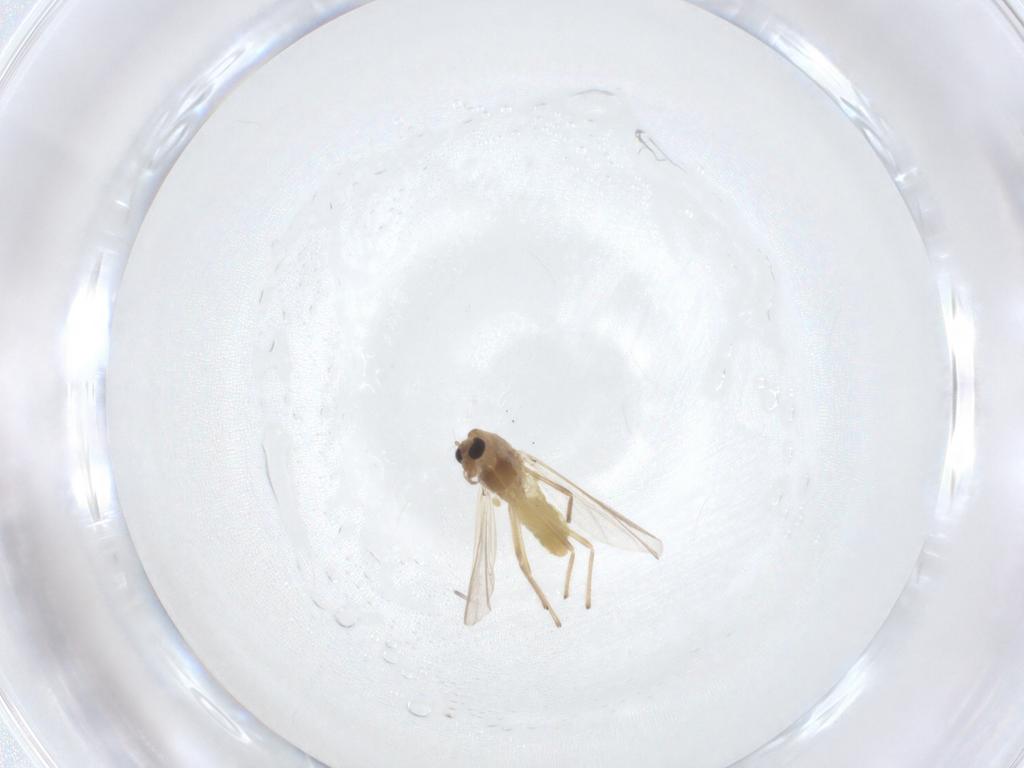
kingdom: Animalia
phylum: Arthropoda
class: Insecta
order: Diptera
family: Chironomidae
